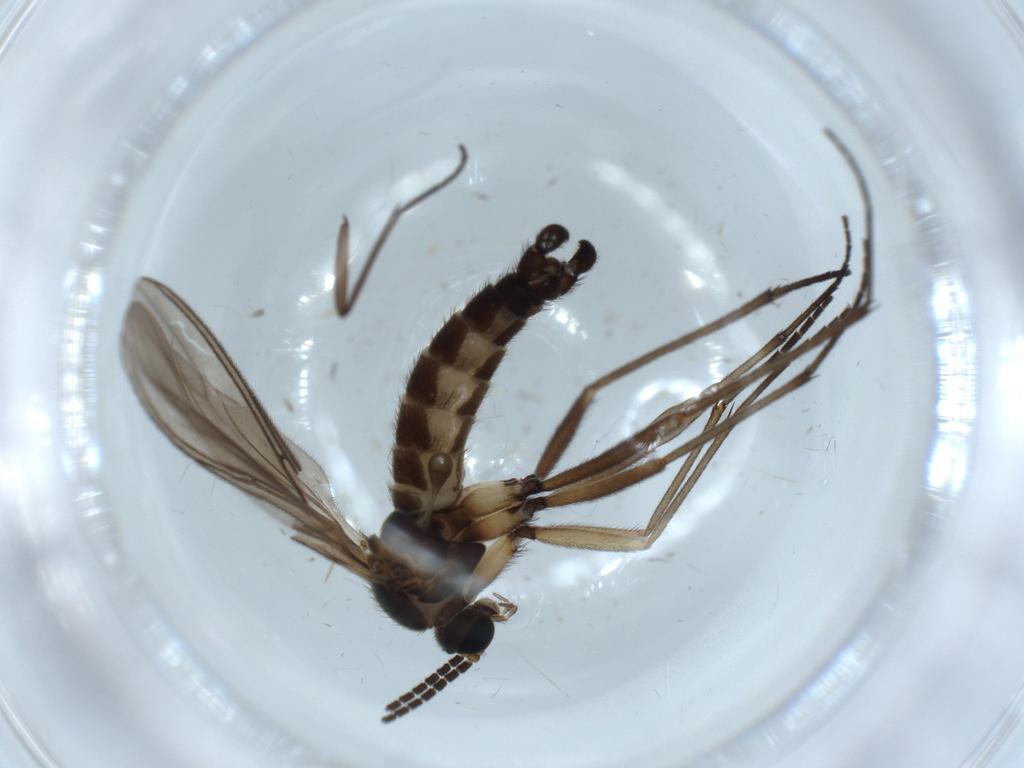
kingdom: Animalia
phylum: Arthropoda
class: Insecta
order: Diptera
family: Sciaridae
